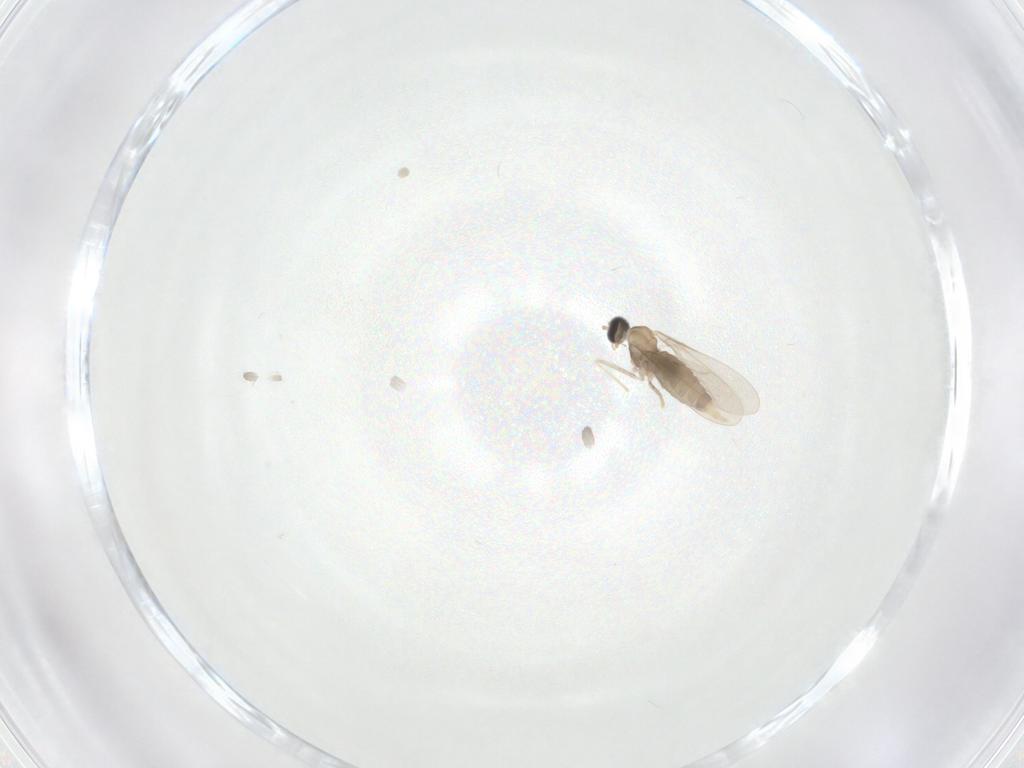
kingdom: Animalia
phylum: Arthropoda
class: Insecta
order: Diptera
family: Cecidomyiidae
